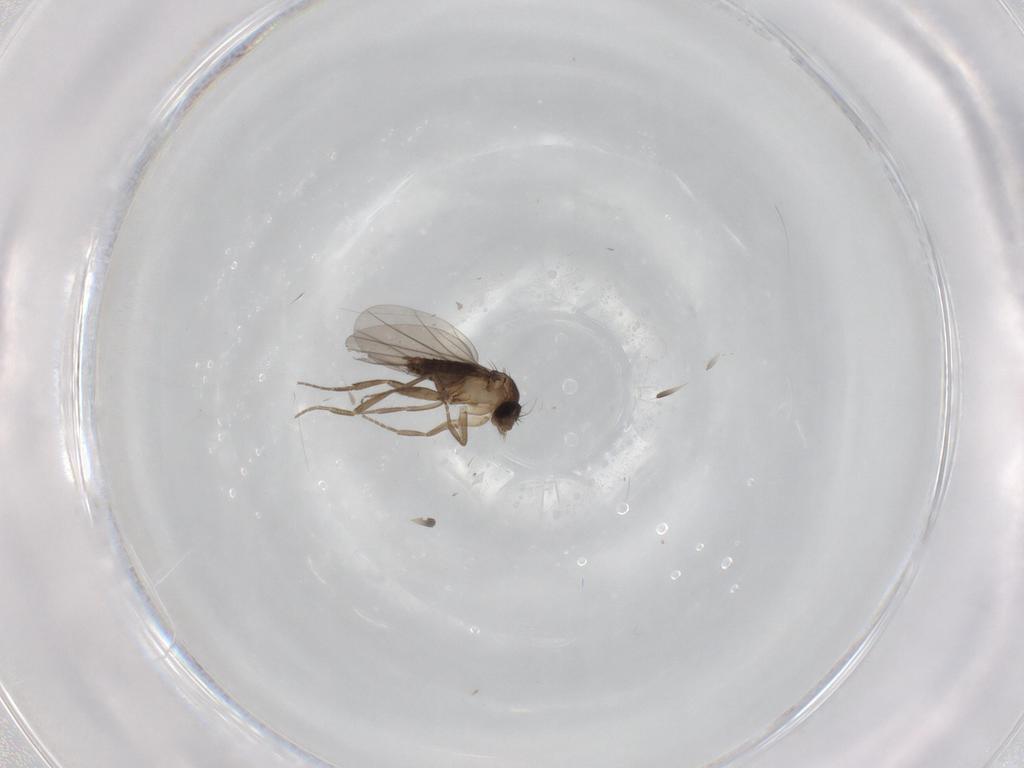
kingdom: Animalia
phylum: Arthropoda
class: Insecta
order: Diptera
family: Phoridae
